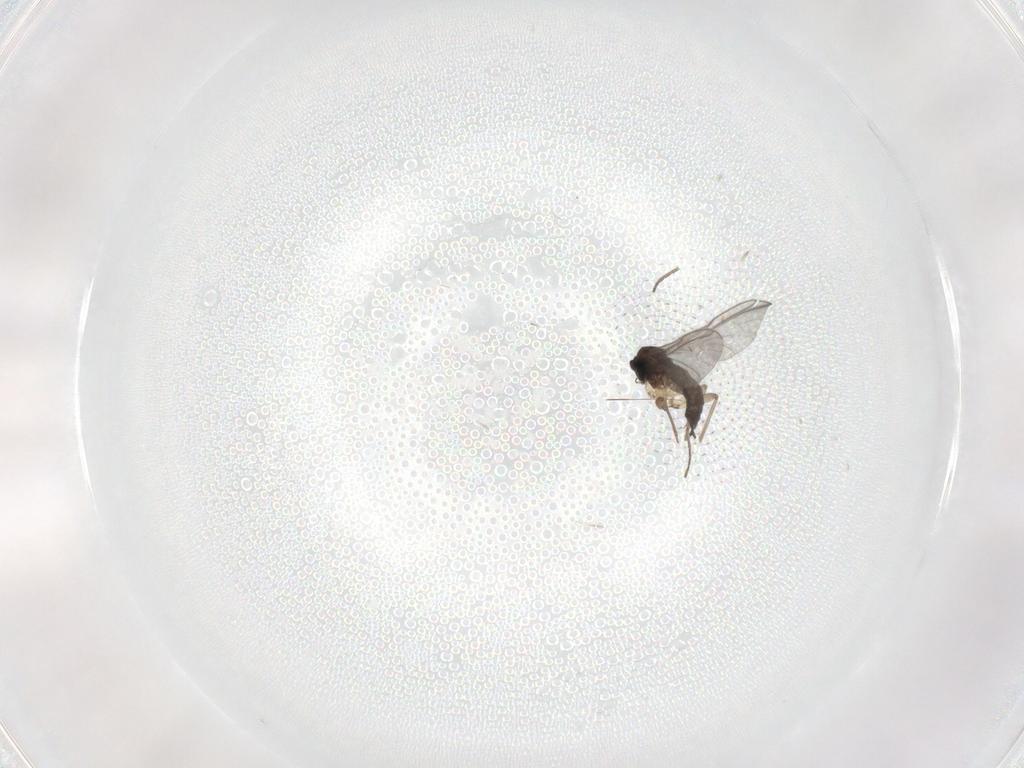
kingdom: Animalia
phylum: Arthropoda
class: Insecta
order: Diptera
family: Sciaridae
